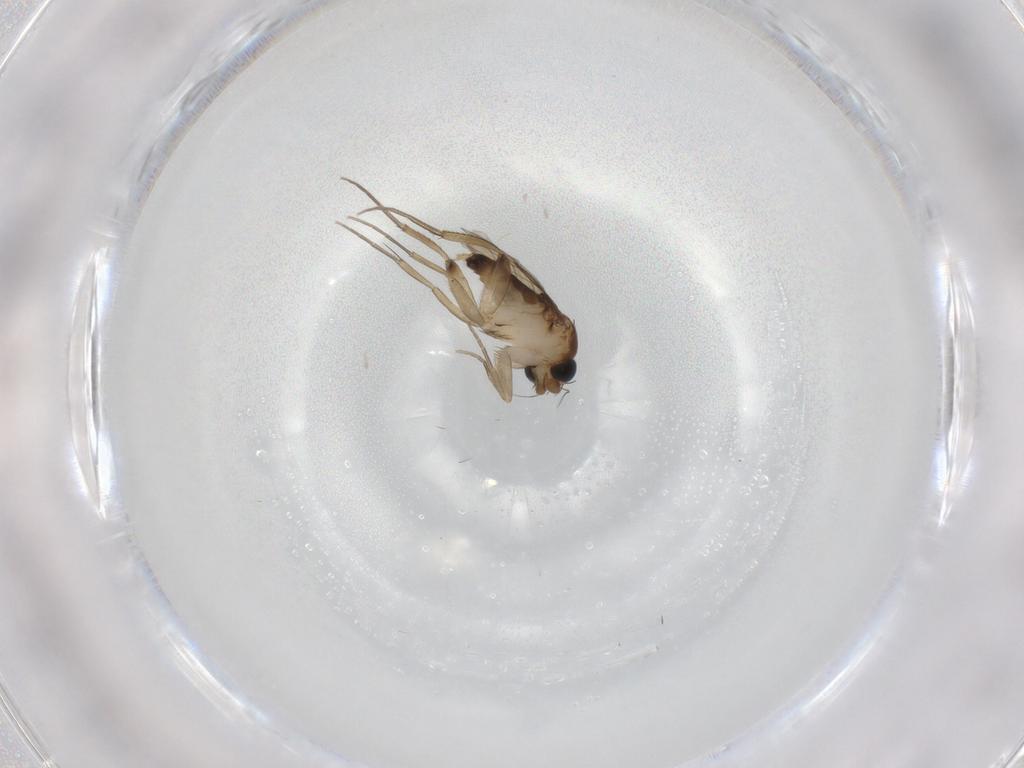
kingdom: Animalia
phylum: Arthropoda
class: Insecta
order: Diptera
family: Phoridae
